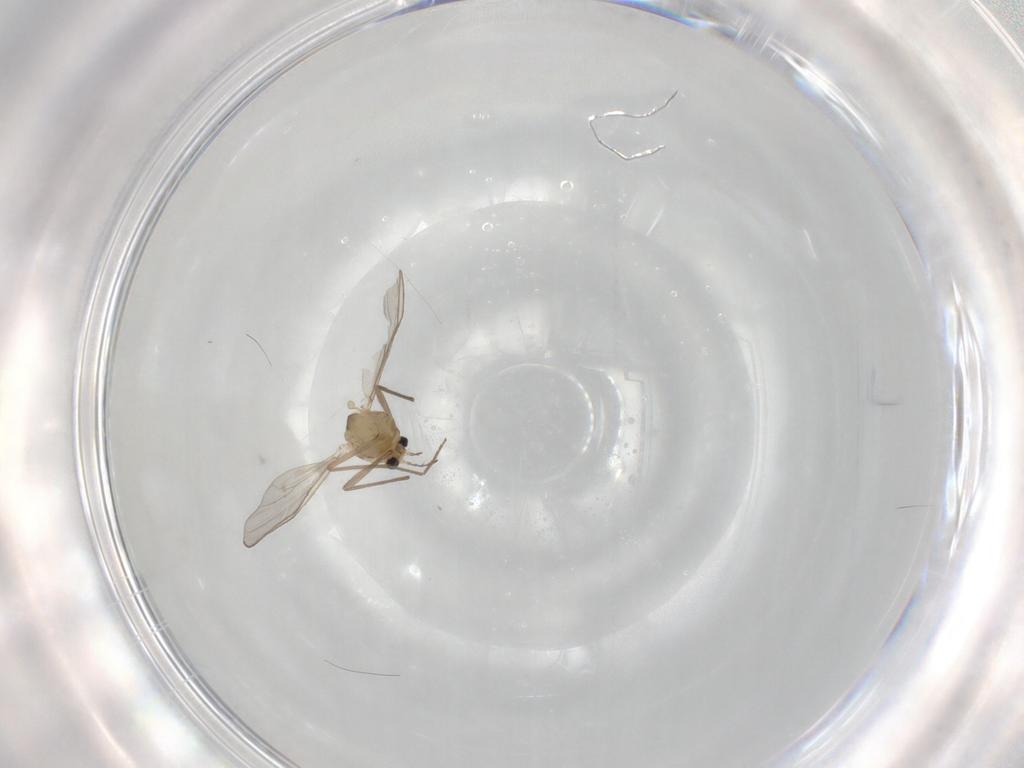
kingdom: Animalia
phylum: Arthropoda
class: Insecta
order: Diptera
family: Chironomidae
